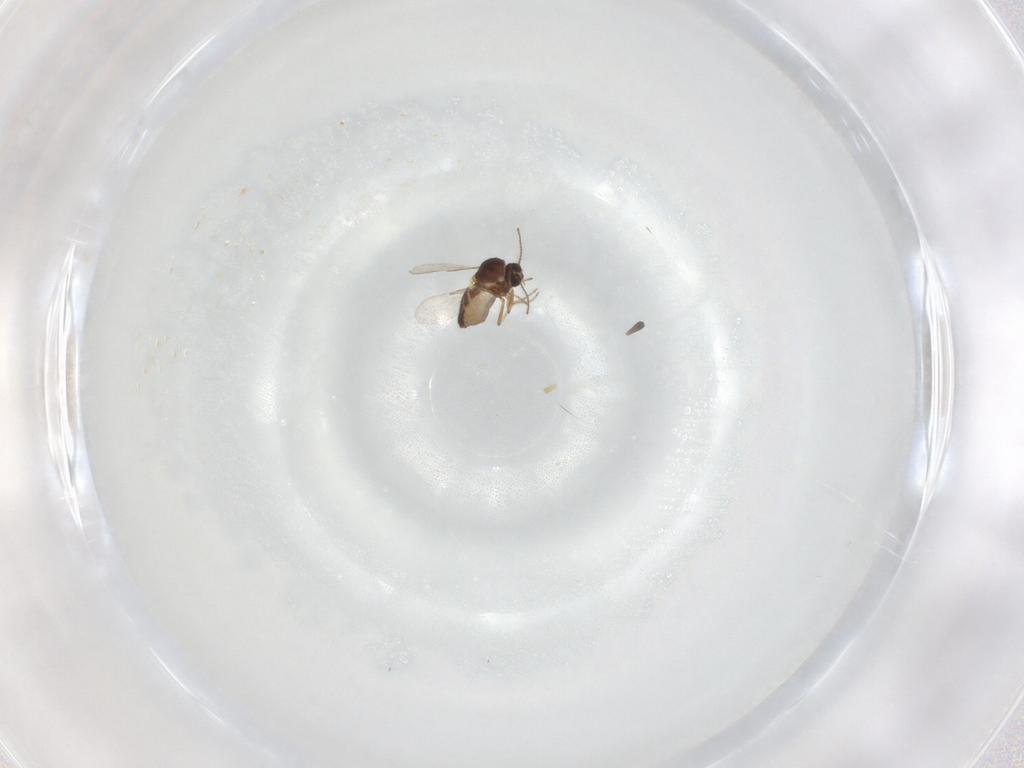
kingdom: Animalia
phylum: Arthropoda
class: Insecta
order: Diptera
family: Ceratopogonidae
